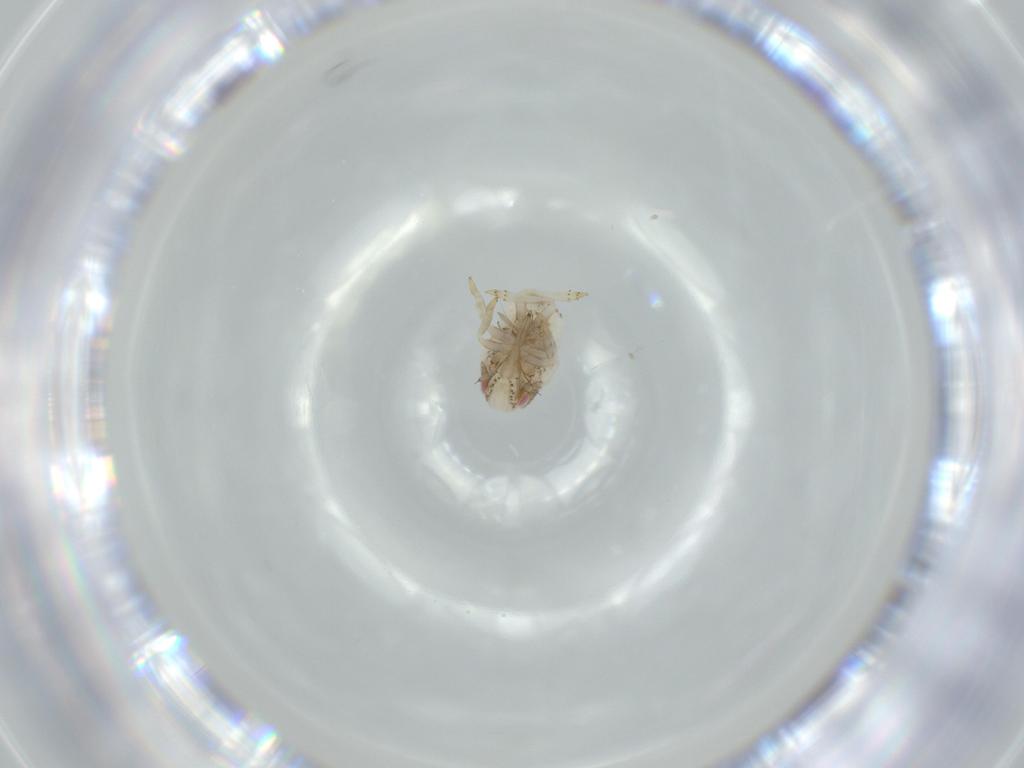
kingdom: Animalia
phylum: Arthropoda
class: Insecta
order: Hemiptera
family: Acanaloniidae
